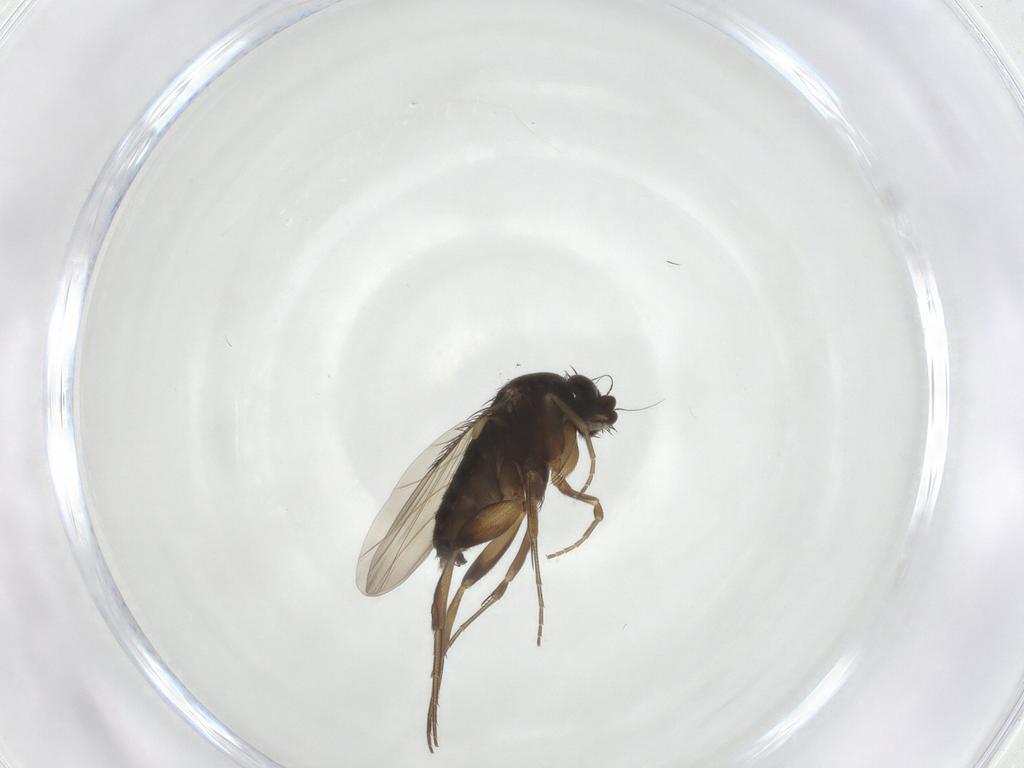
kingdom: Animalia
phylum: Arthropoda
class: Insecta
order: Diptera
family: Phoridae
